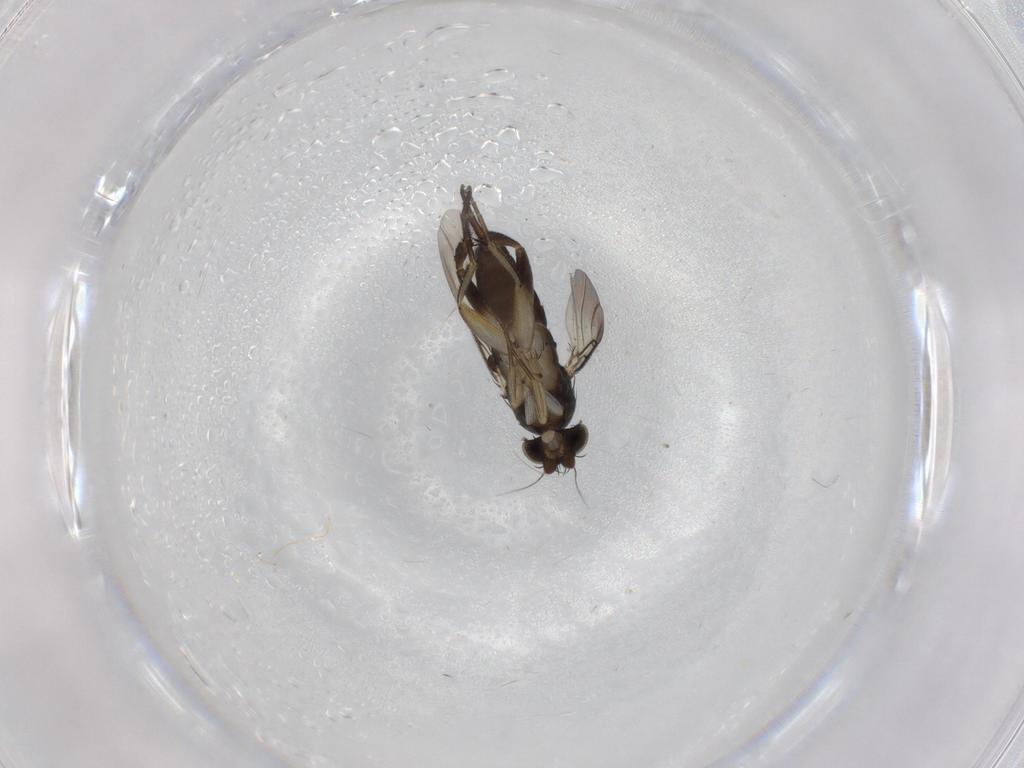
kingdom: Animalia
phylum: Arthropoda
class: Insecta
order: Diptera
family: Phoridae
